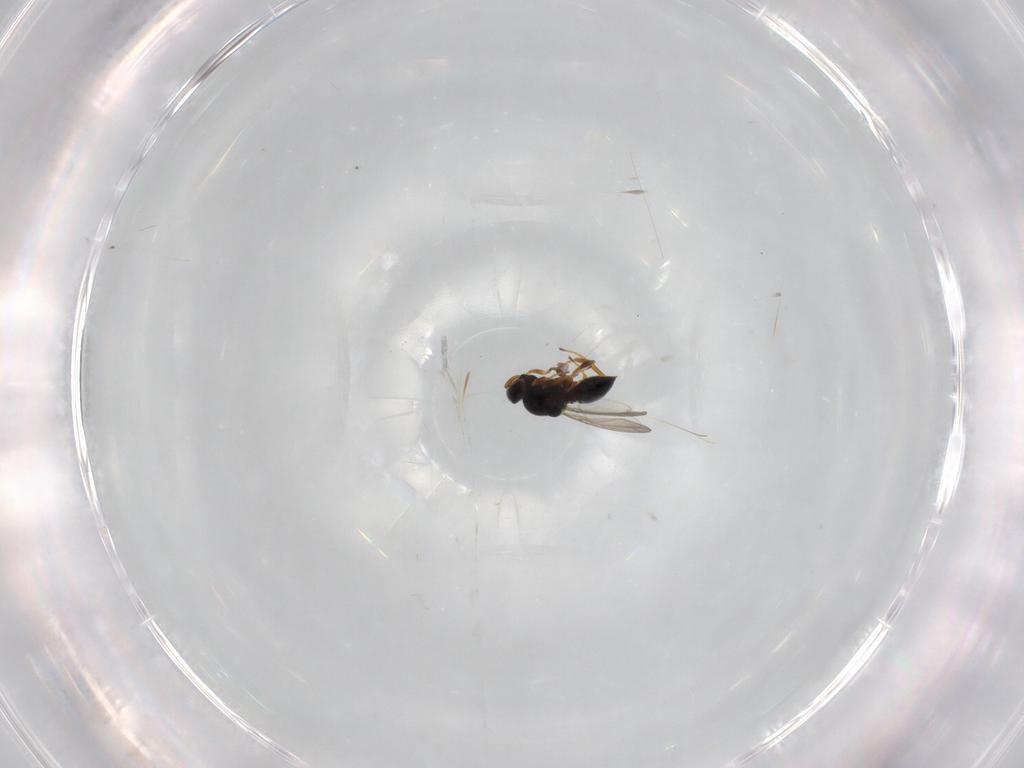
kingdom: Animalia
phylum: Arthropoda
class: Insecta
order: Hymenoptera
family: Platygastridae
